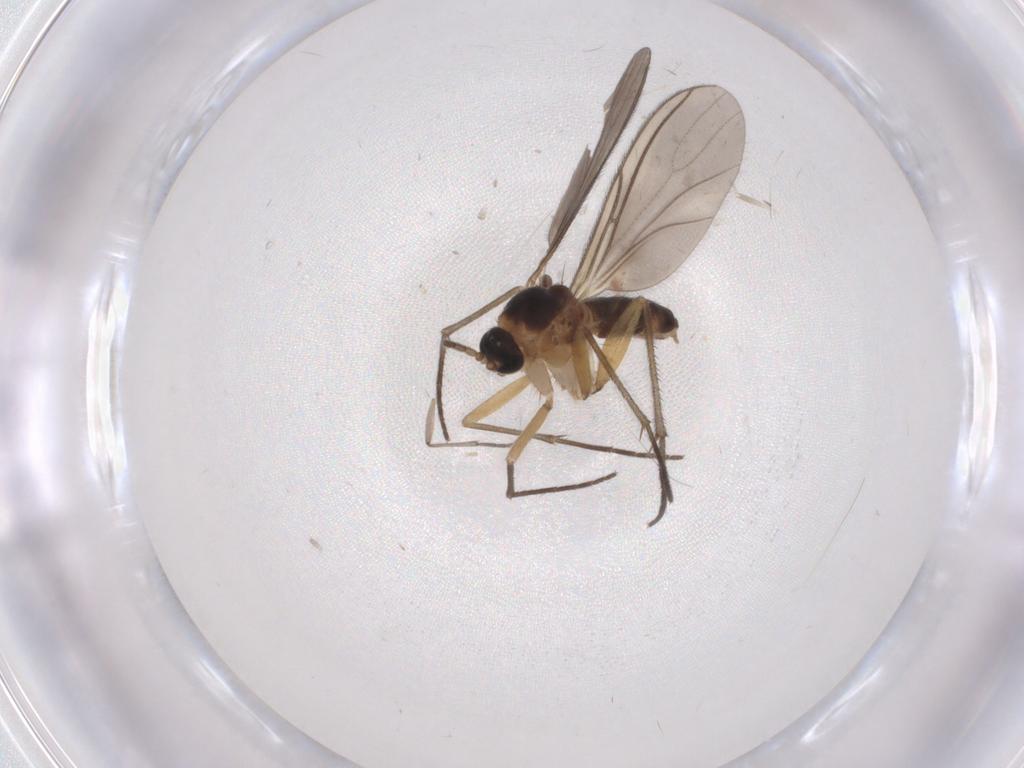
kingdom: Animalia
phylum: Arthropoda
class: Insecta
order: Diptera
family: Sciaridae
